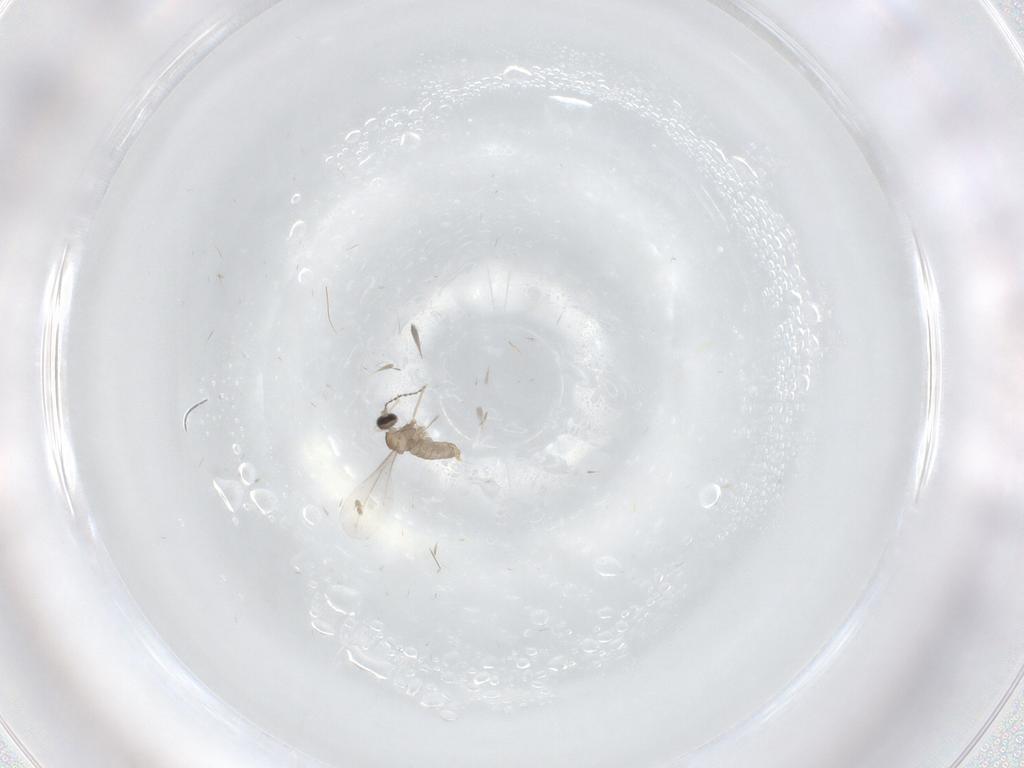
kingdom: Animalia
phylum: Arthropoda
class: Insecta
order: Diptera
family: Clusiidae
